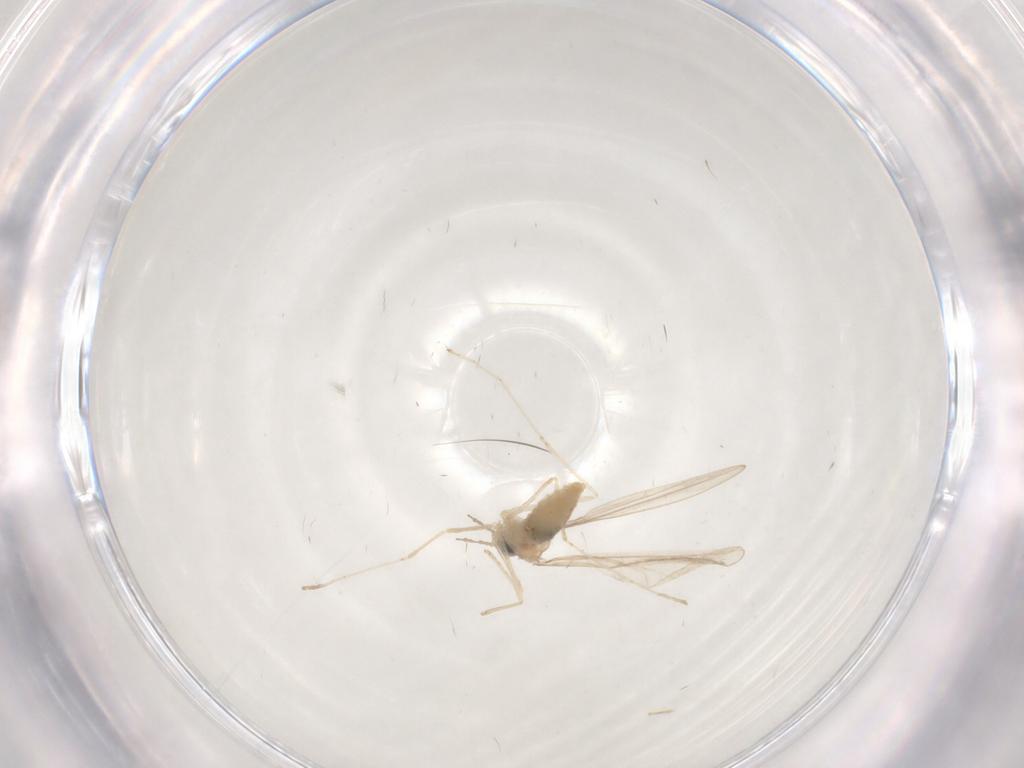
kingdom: Animalia
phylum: Arthropoda
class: Insecta
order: Diptera
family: Cecidomyiidae
